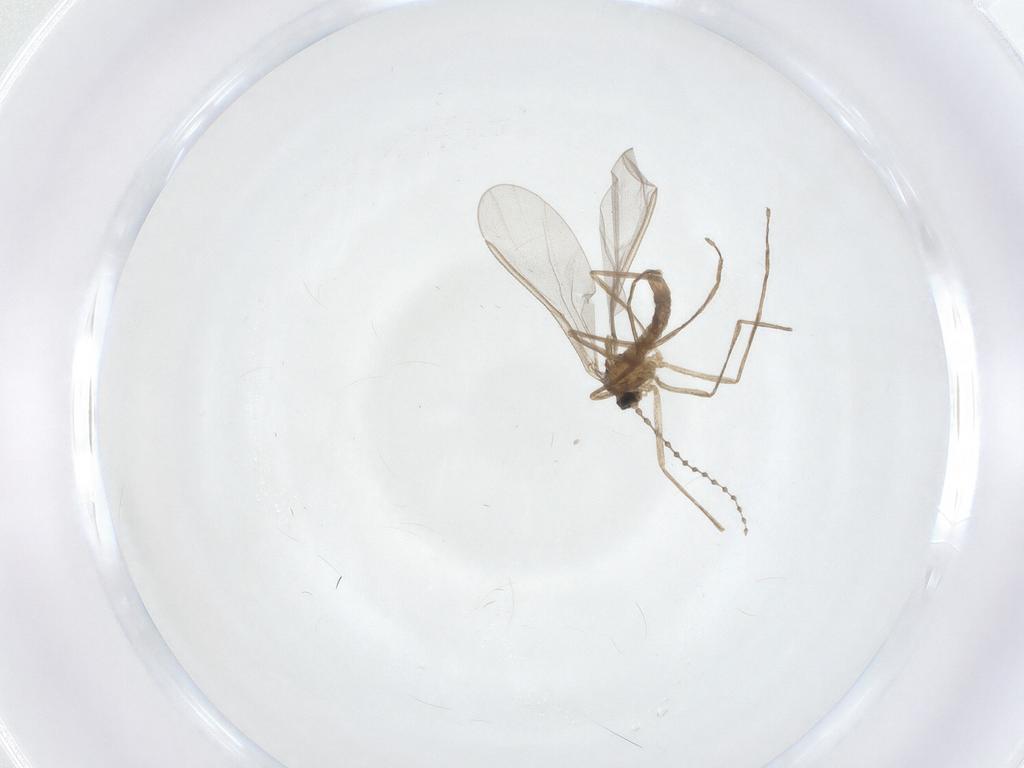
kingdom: Animalia
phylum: Arthropoda
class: Insecta
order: Diptera
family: Cecidomyiidae
